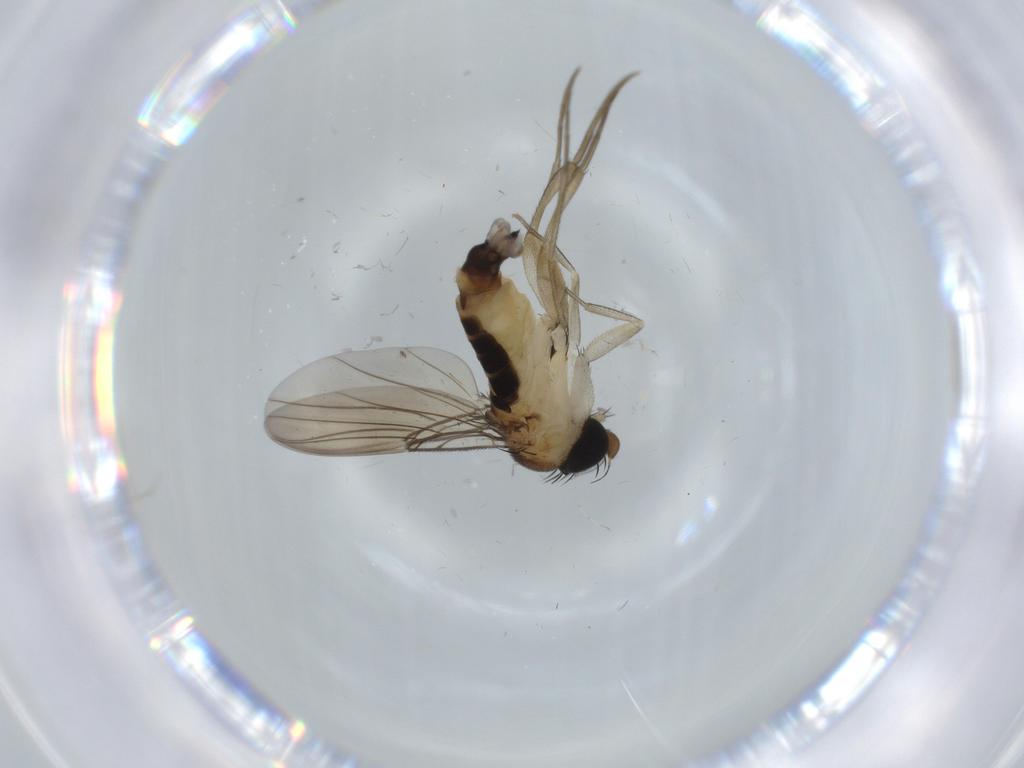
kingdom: Animalia
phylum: Arthropoda
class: Insecta
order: Diptera
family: Phoridae
